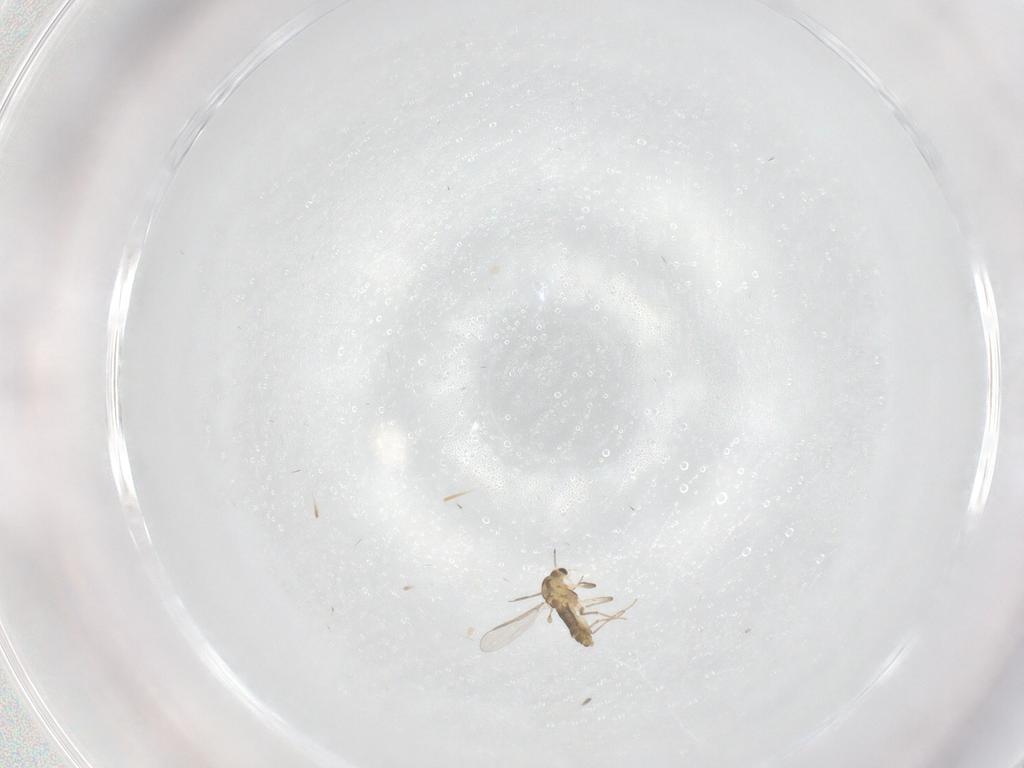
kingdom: Animalia
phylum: Arthropoda
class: Insecta
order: Diptera
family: Chironomidae
